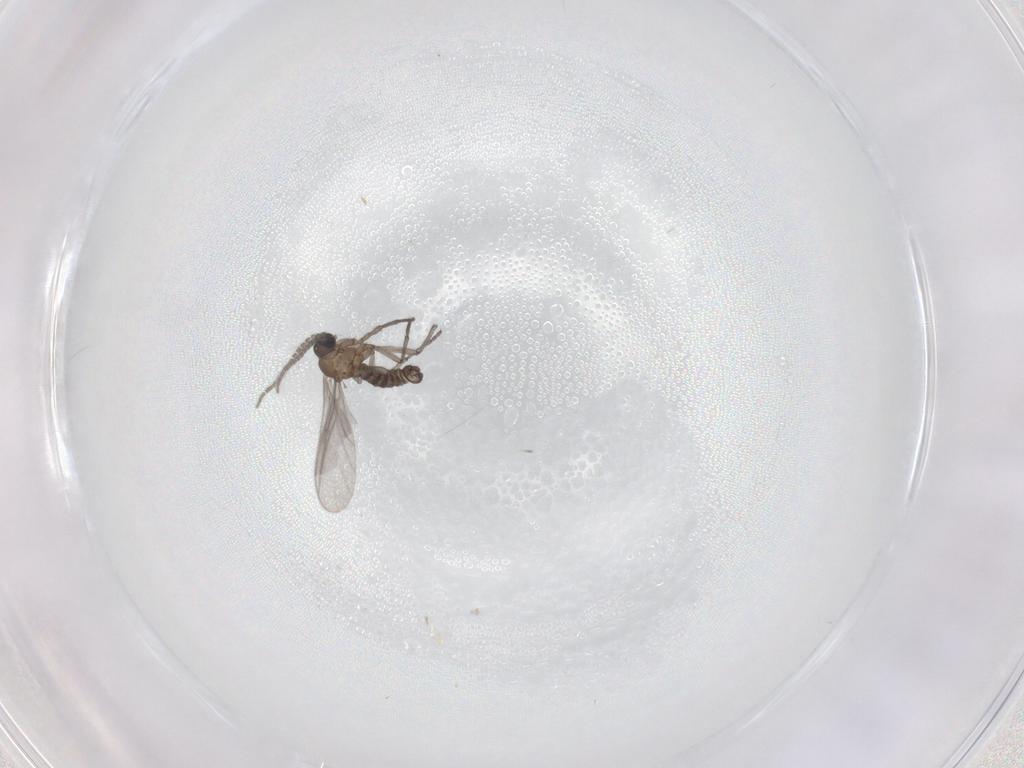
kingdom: Animalia
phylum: Arthropoda
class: Insecta
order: Diptera
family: Sciaridae
